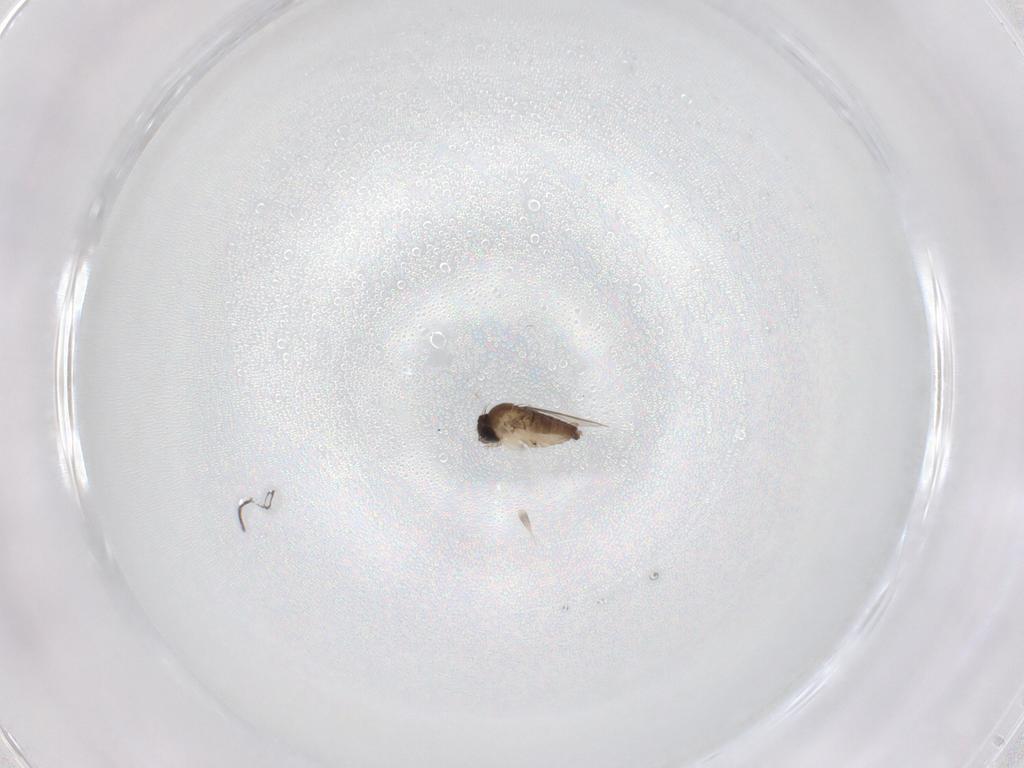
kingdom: Animalia
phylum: Arthropoda
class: Insecta
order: Diptera
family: Phoridae
